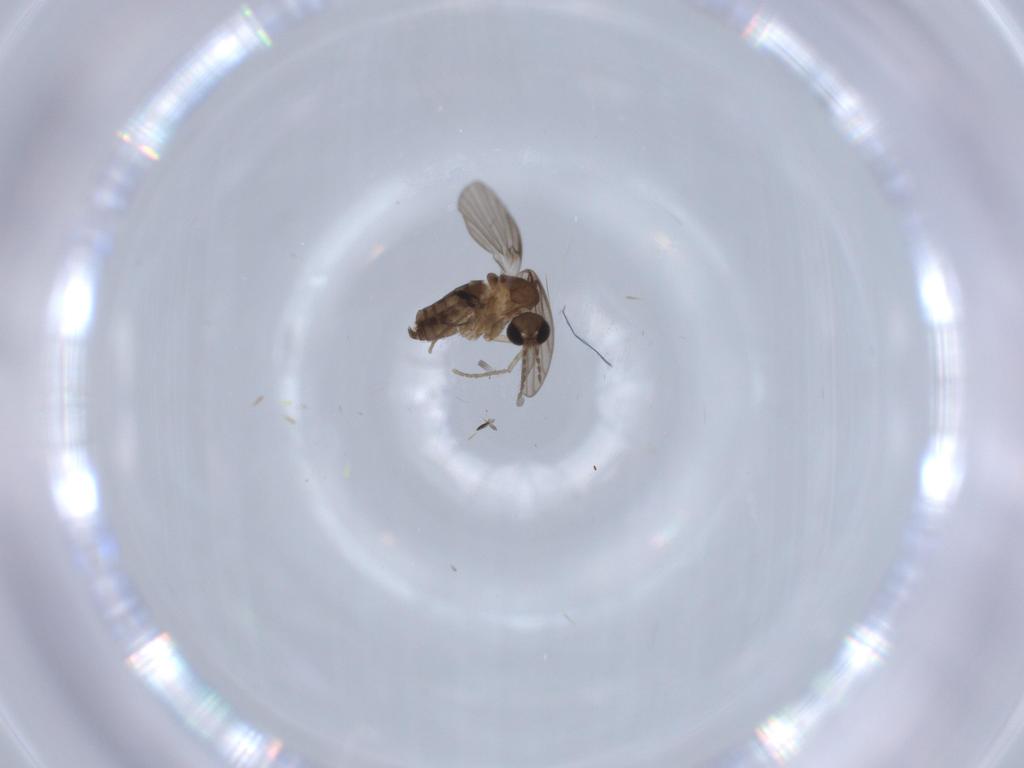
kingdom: Animalia
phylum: Arthropoda
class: Insecta
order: Diptera
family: Psychodidae
